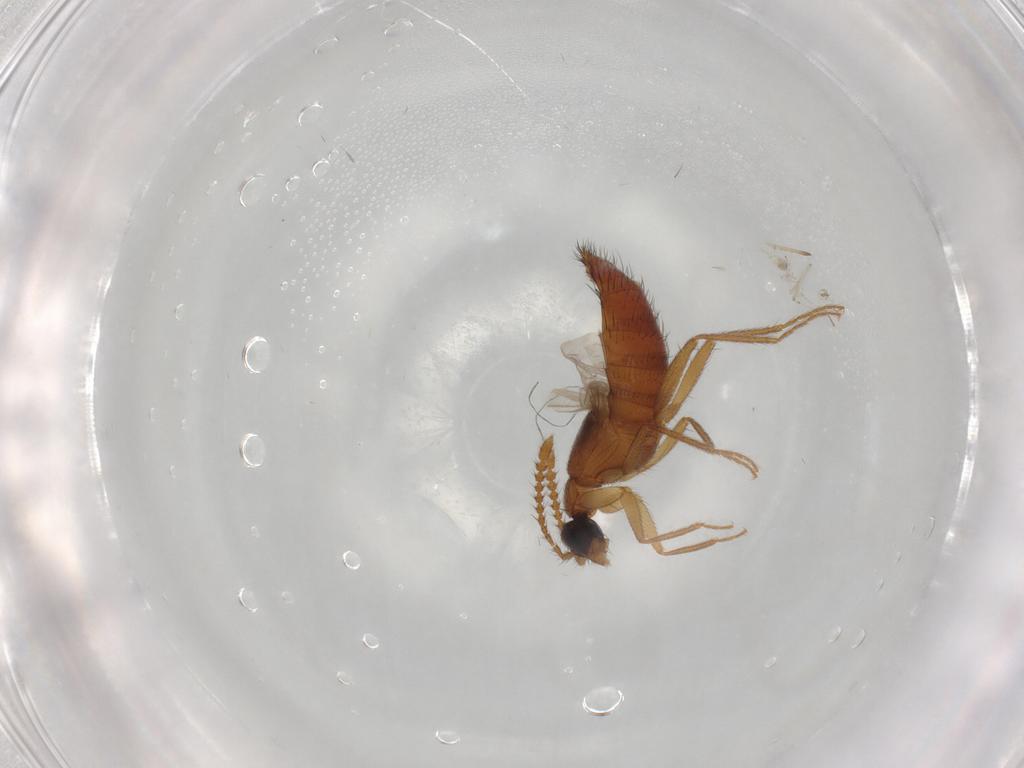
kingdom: Animalia
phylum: Arthropoda
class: Insecta
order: Coleoptera
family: Staphylinidae
